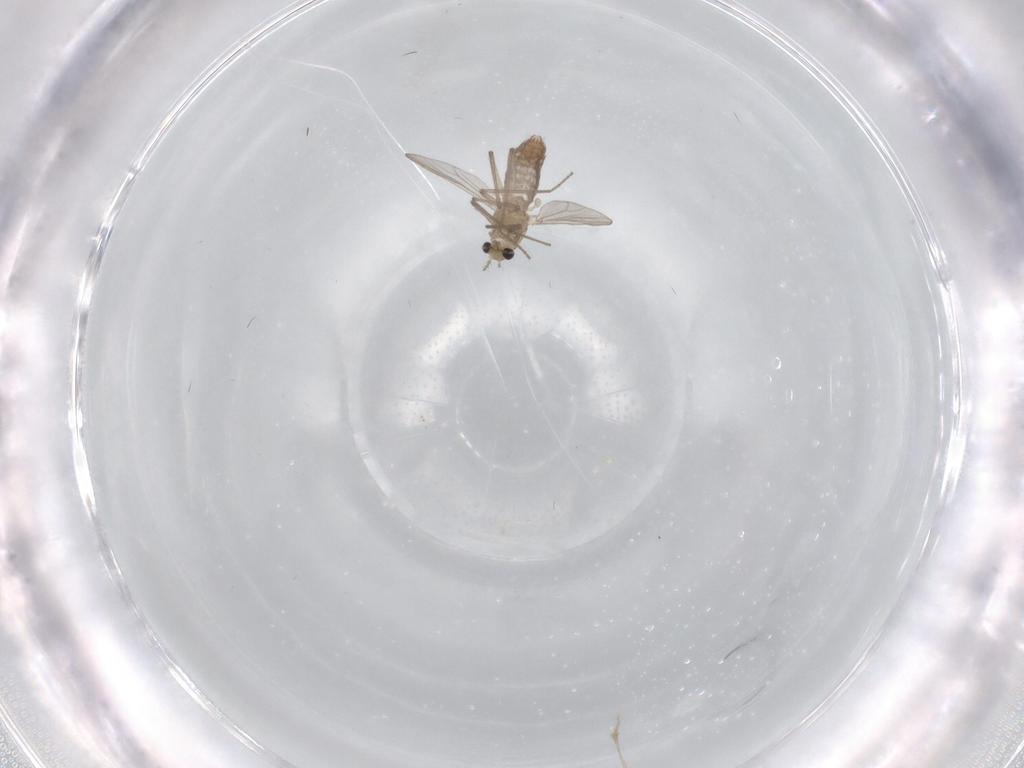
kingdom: Animalia
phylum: Arthropoda
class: Insecta
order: Diptera
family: Chironomidae
